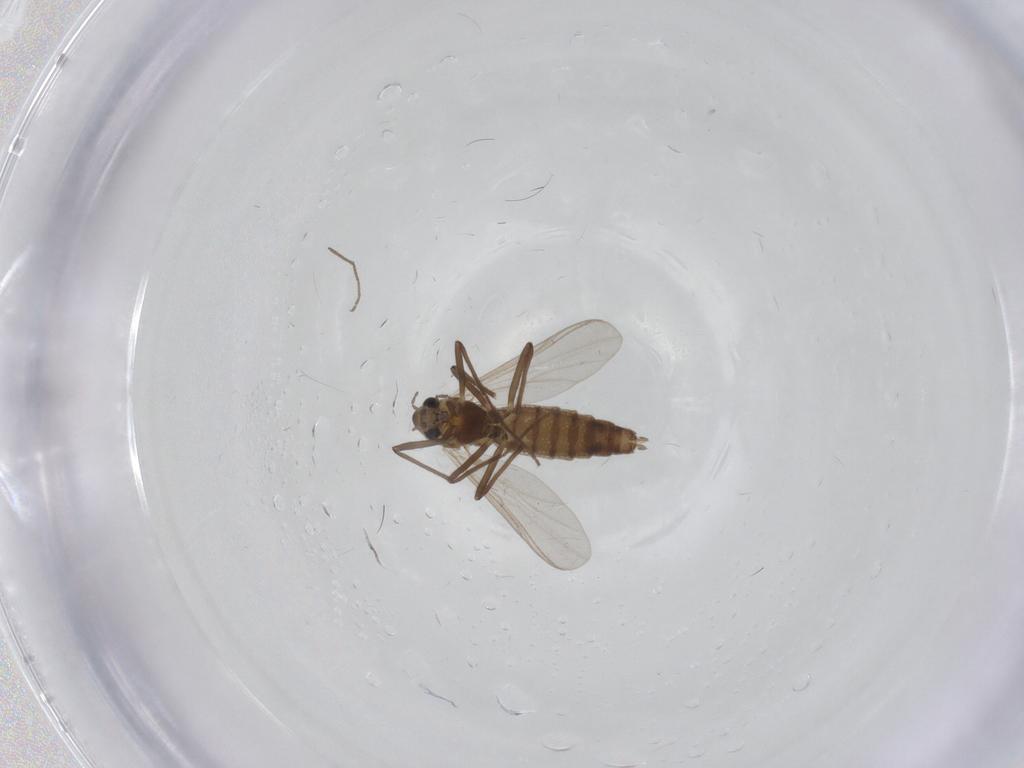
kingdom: Animalia
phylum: Arthropoda
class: Insecta
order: Diptera
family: Chironomidae
